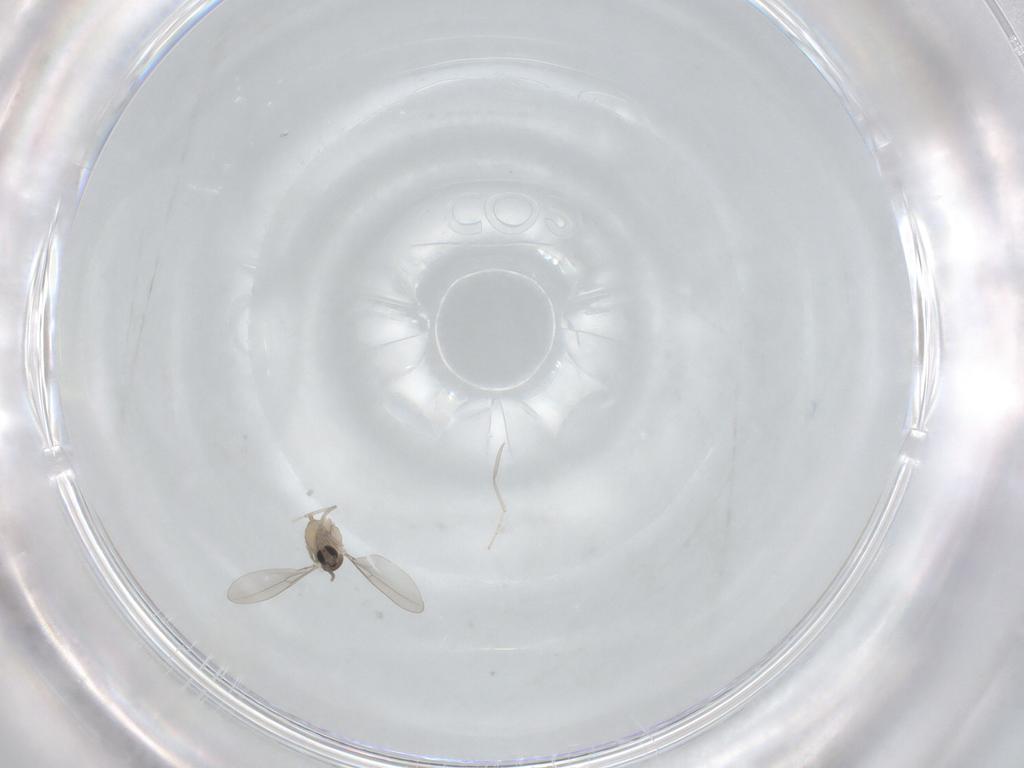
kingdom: Animalia
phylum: Arthropoda
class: Insecta
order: Diptera
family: Cecidomyiidae
